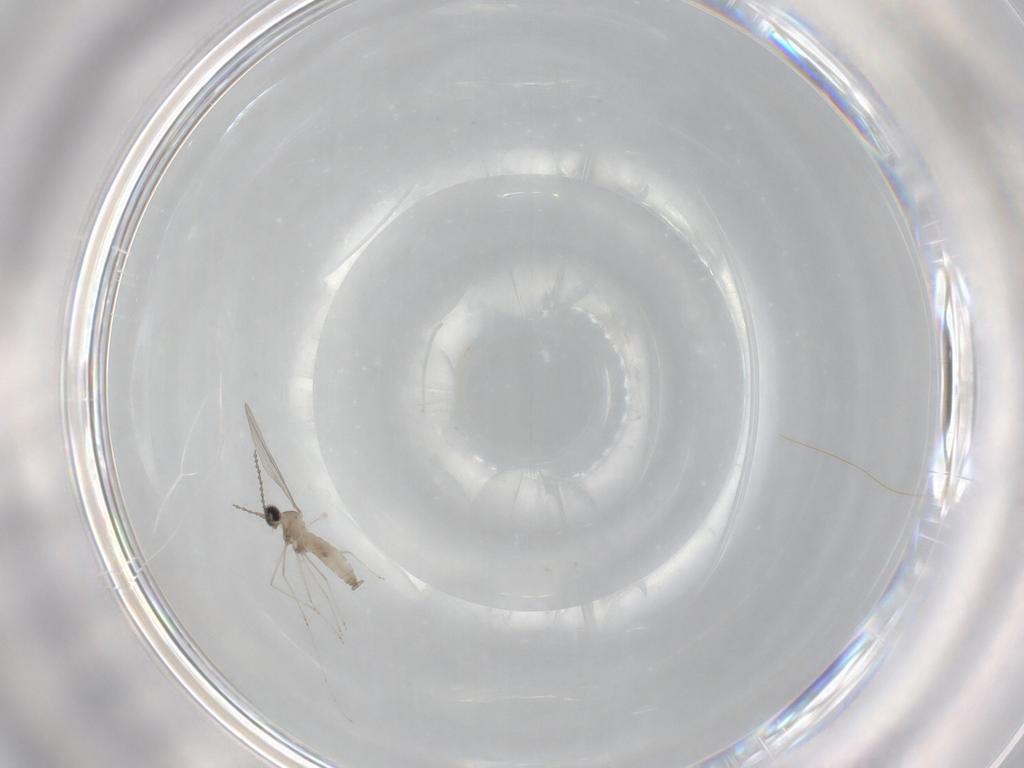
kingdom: Animalia
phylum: Arthropoda
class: Insecta
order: Diptera
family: Cecidomyiidae
